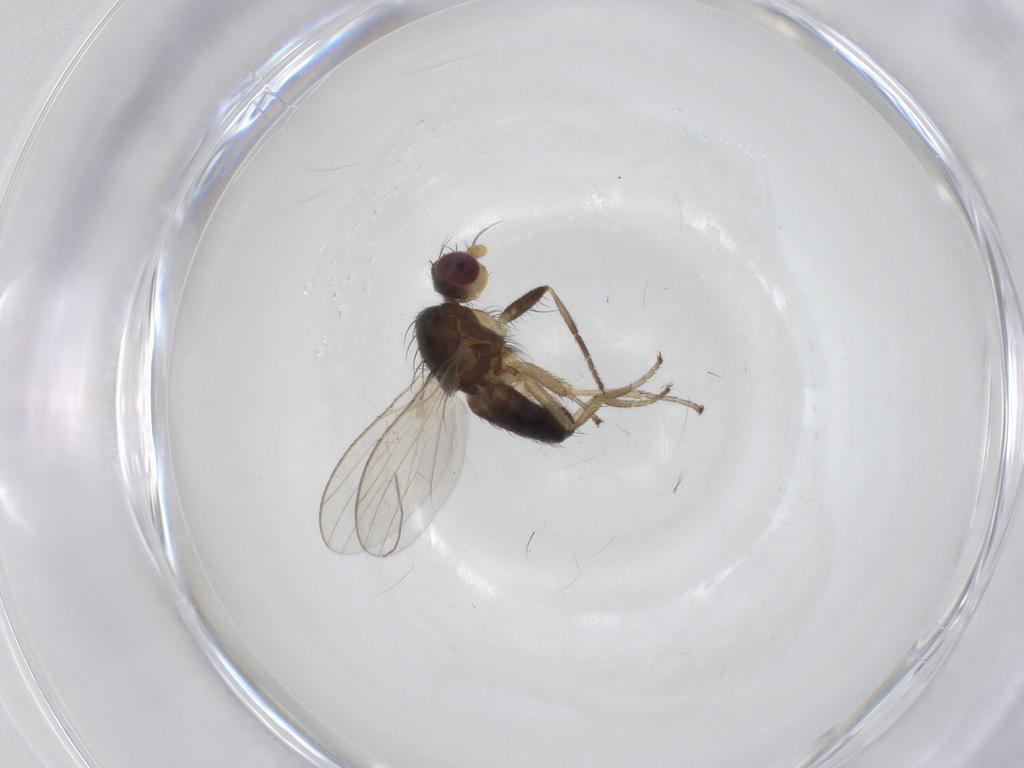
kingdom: Animalia
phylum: Arthropoda
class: Insecta
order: Diptera
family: Heleomyzidae
